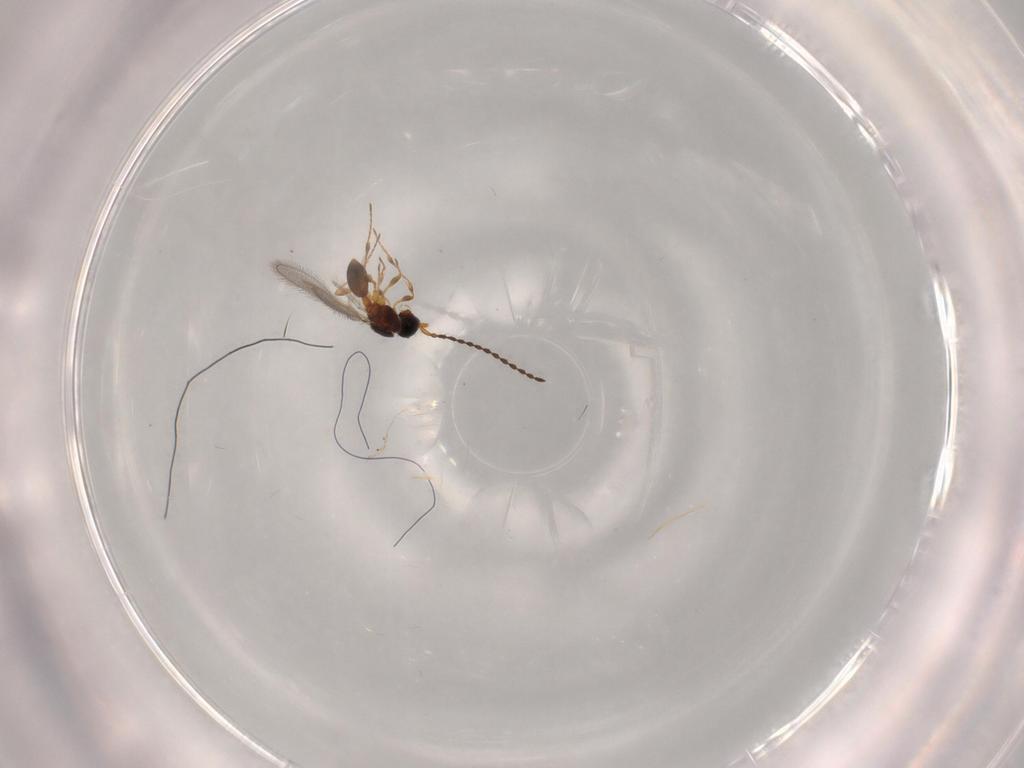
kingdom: Animalia
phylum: Arthropoda
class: Insecta
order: Hymenoptera
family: Diapriidae
